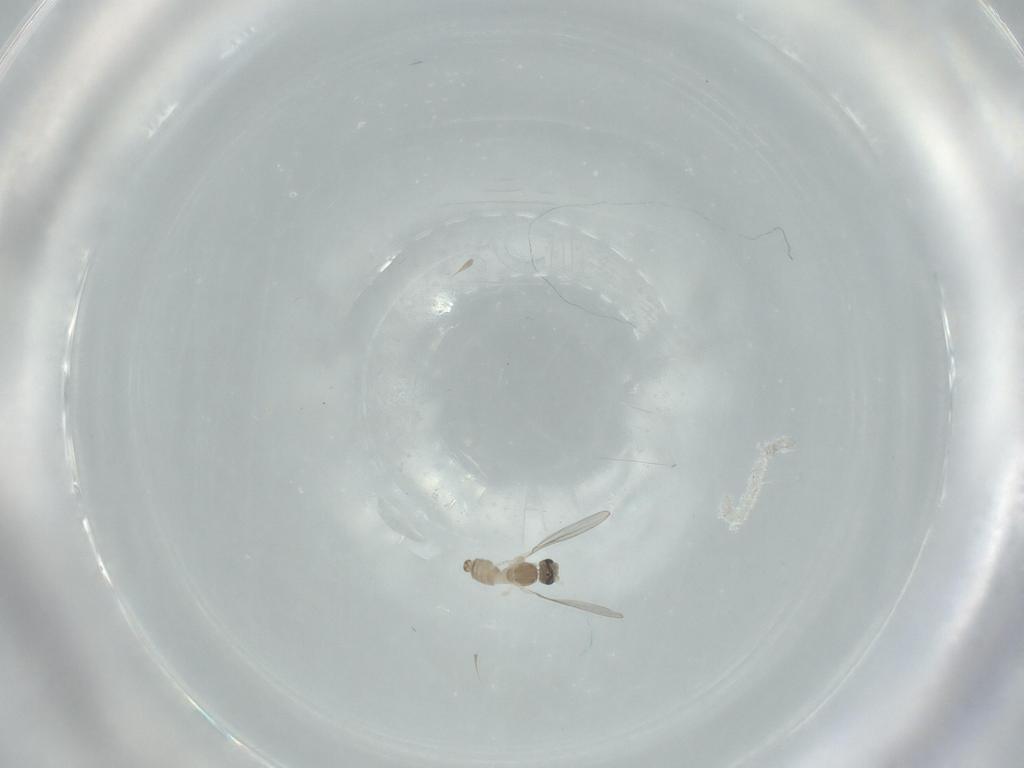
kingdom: Animalia
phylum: Arthropoda
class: Insecta
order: Diptera
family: Cecidomyiidae
